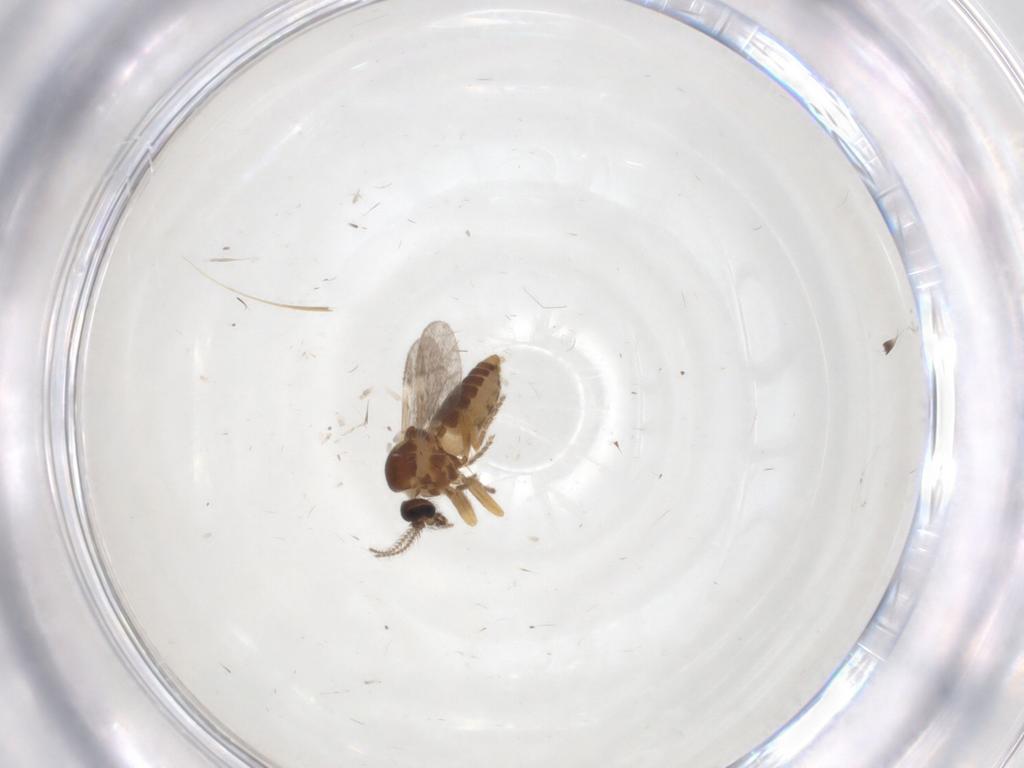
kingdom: Animalia
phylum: Arthropoda
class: Insecta
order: Diptera
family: Ceratopogonidae
